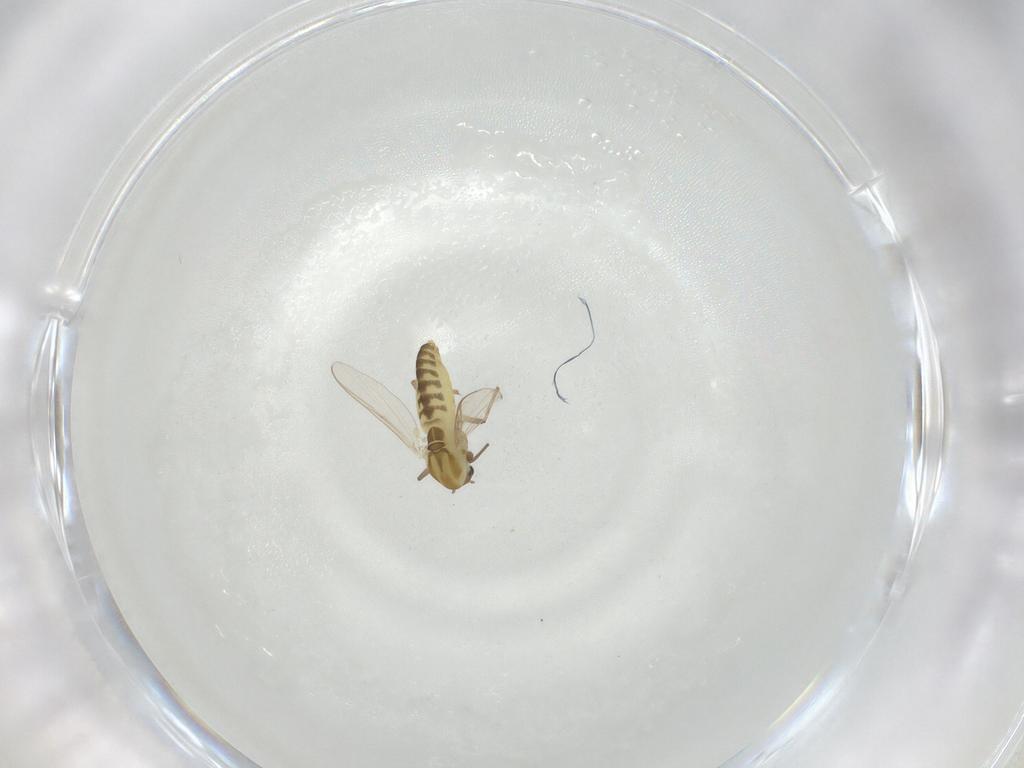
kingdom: Animalia
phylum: Arthropoda
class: Insecta
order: Diptera
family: Chironomidae
